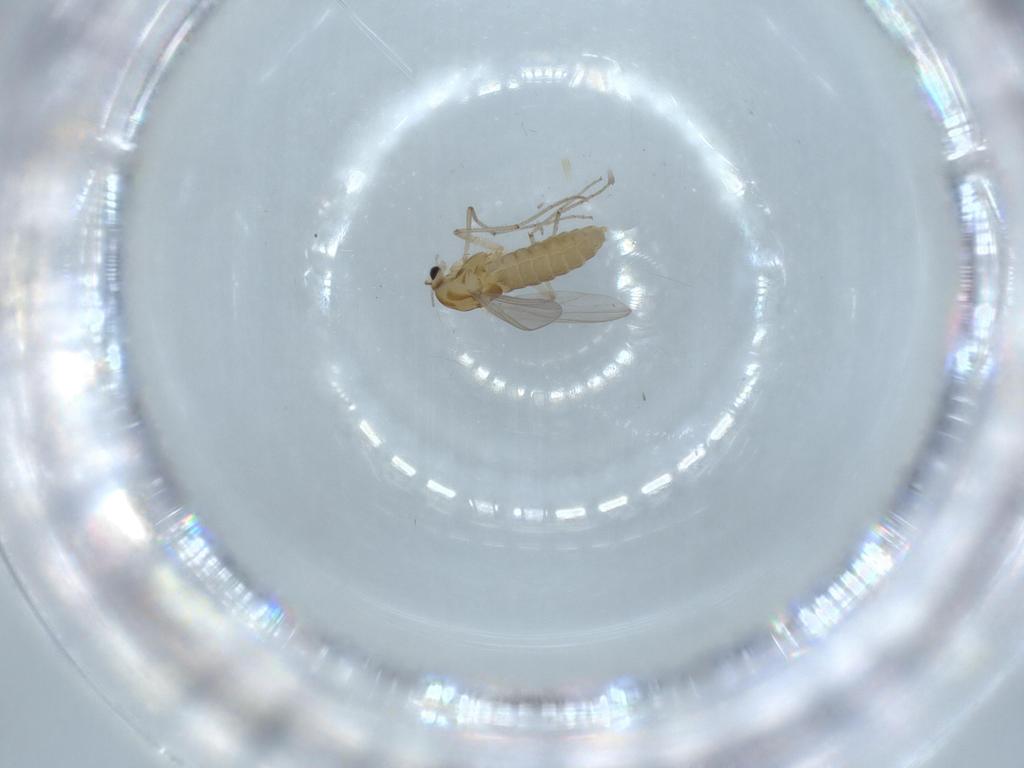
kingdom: Animalia
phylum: Arthropoda
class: Insecta
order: Diptera
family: Chironomidae
